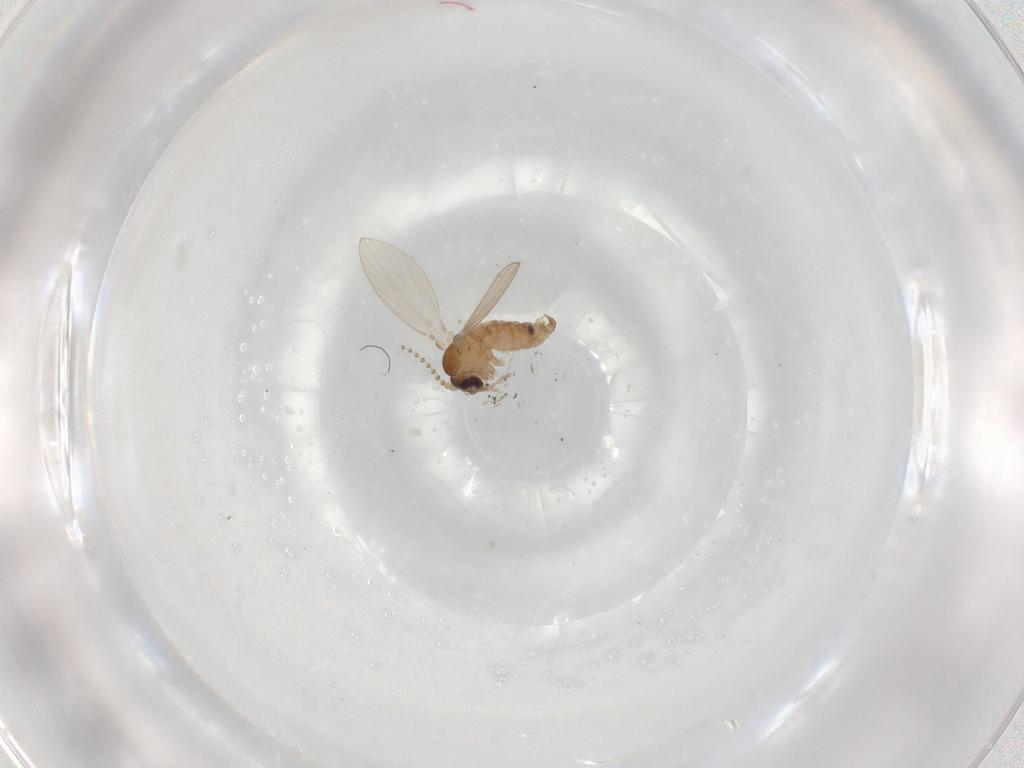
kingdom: Animalia
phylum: Arthropoda
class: Insecta
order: Diptera
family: Psychodidae
